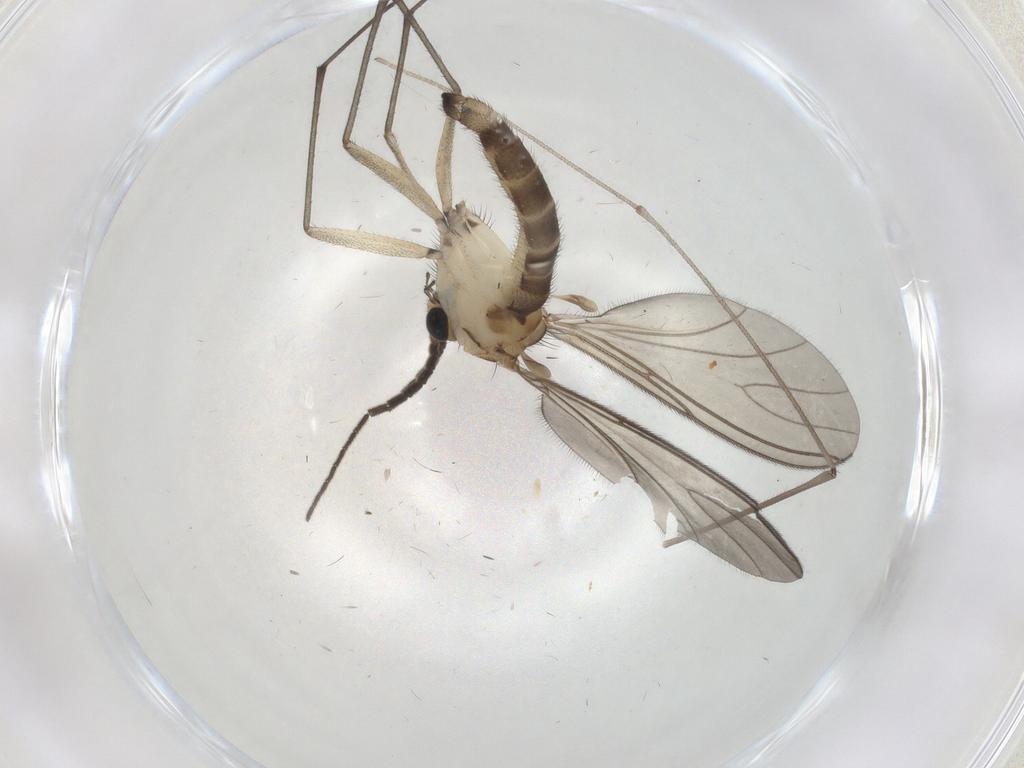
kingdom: Animalia
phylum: Arthropoda
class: Insecta
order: Diptera
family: Sciaridae
